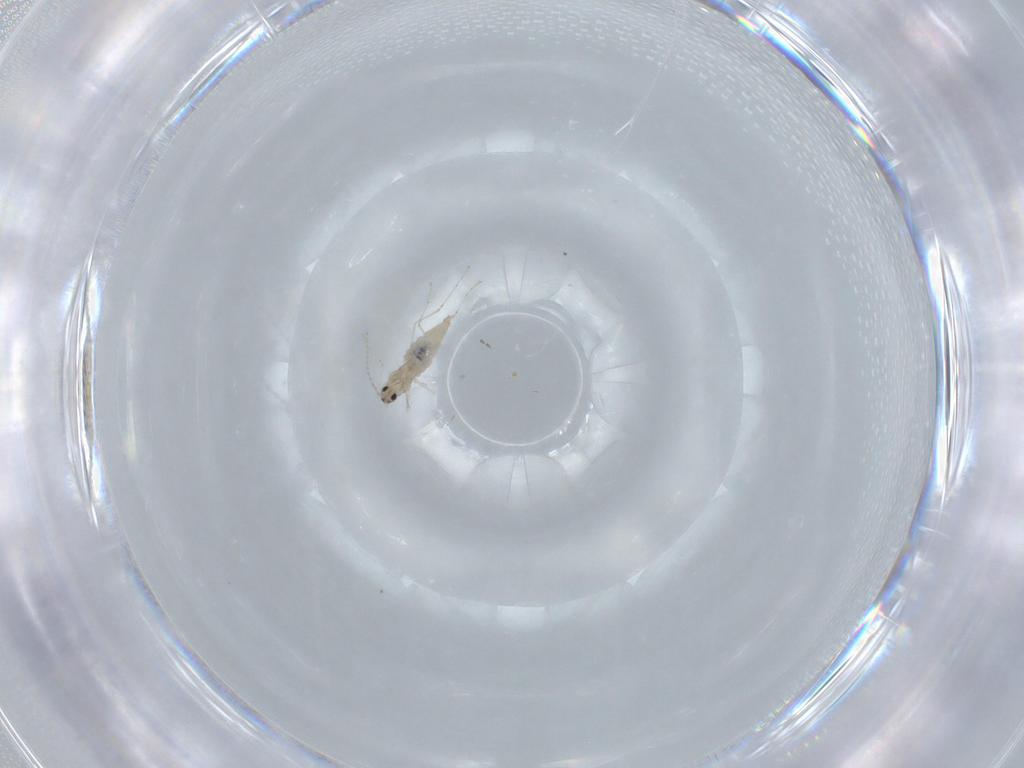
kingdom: Animalia
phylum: Arthropoda
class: Insecta
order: Diptera
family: Cecidomyiidae
